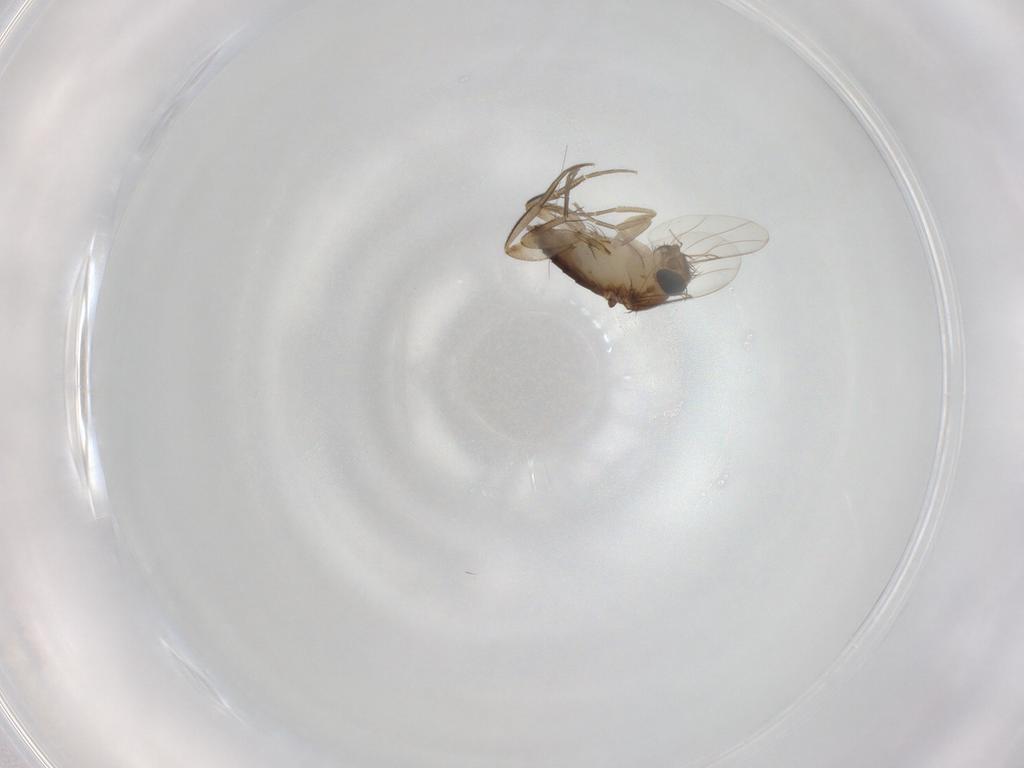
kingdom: Animalia
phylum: Arthropoda
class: Insecta
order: Diptera
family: Phoridae
